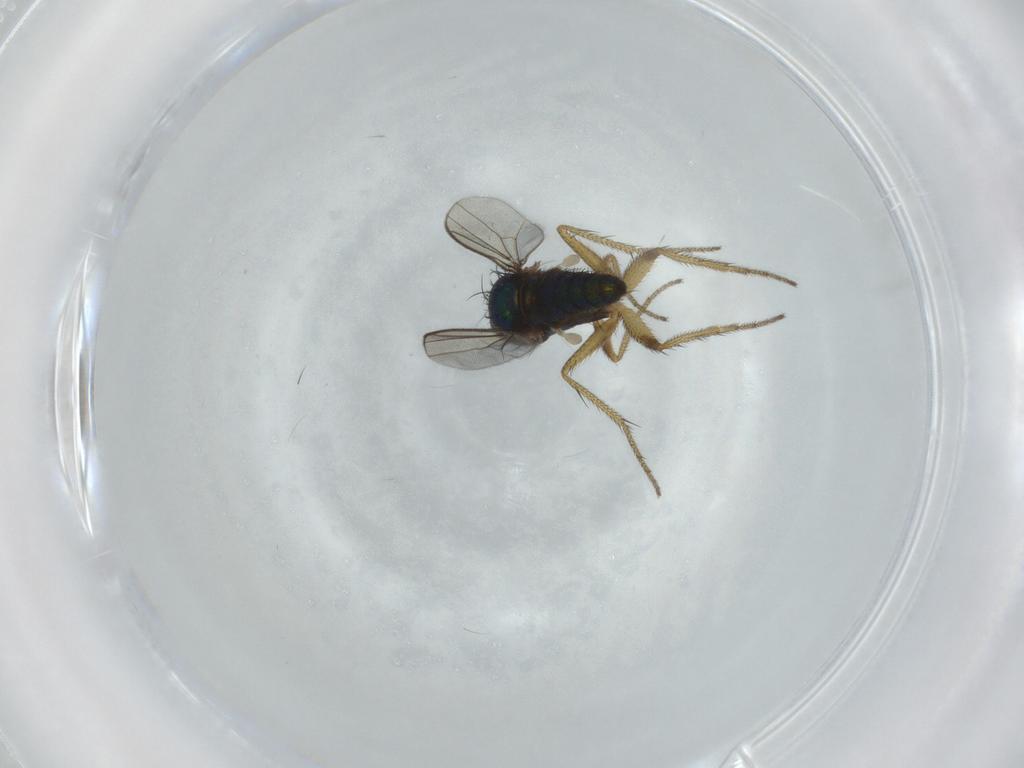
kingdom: Animalia
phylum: Arthropoda
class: Insecta
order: Diptera
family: Dolichopodidae
